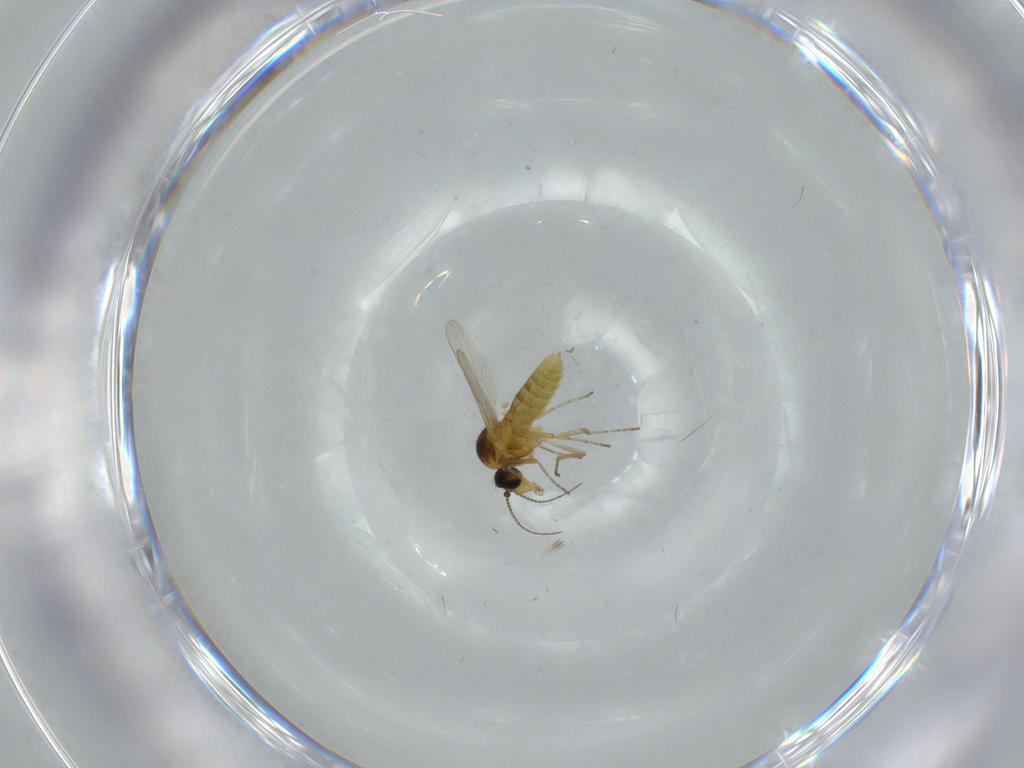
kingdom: Animalia
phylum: Arthropoda
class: Insecta
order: Diptera
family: Ceratopogonidae
